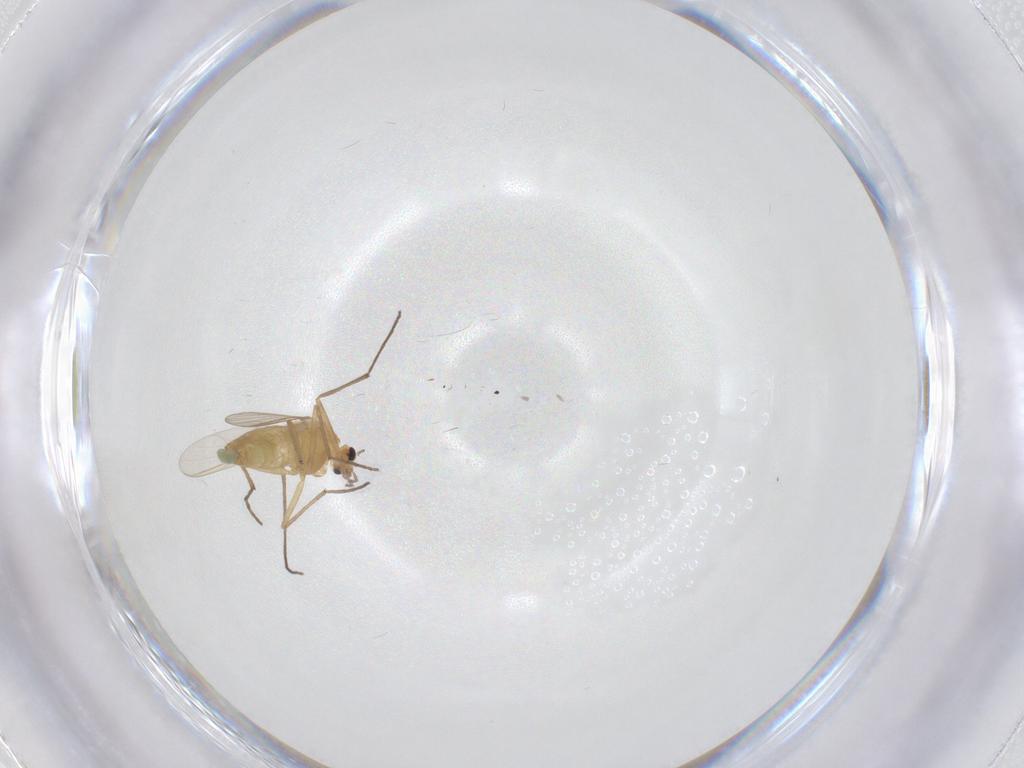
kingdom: Animalia
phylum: Arthropoda
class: Insecta
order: Diptera
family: Chironomidae
